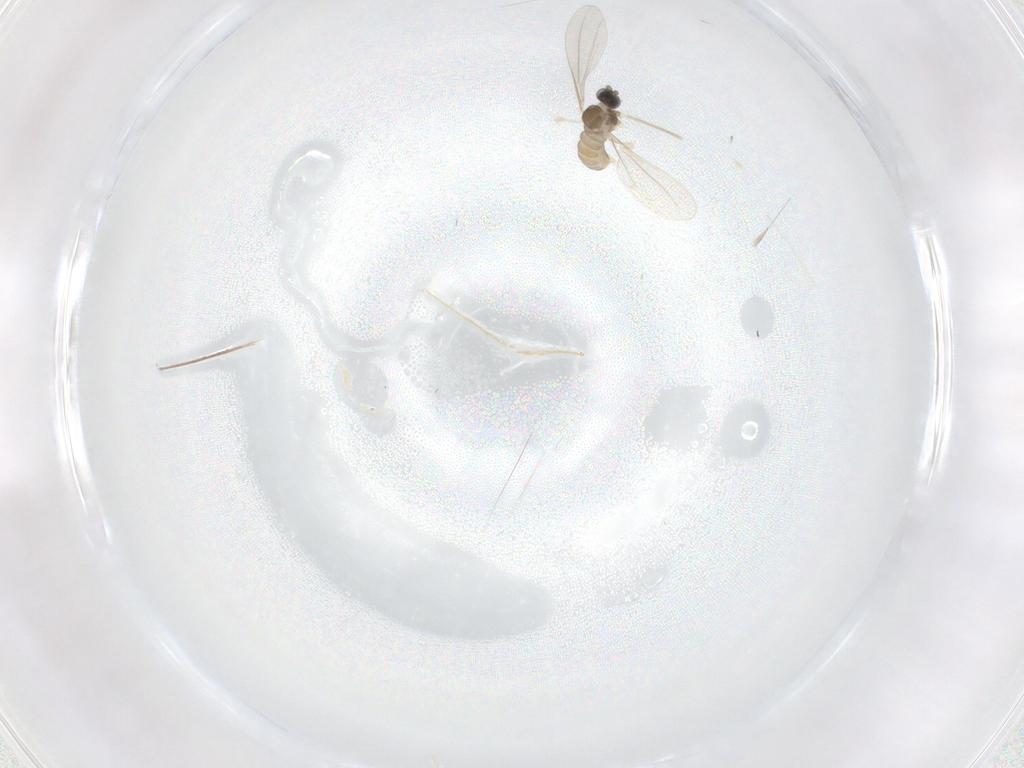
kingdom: Animalia
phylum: Arthropoda
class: Insecta
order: Diptera
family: Cecidomyiidae
